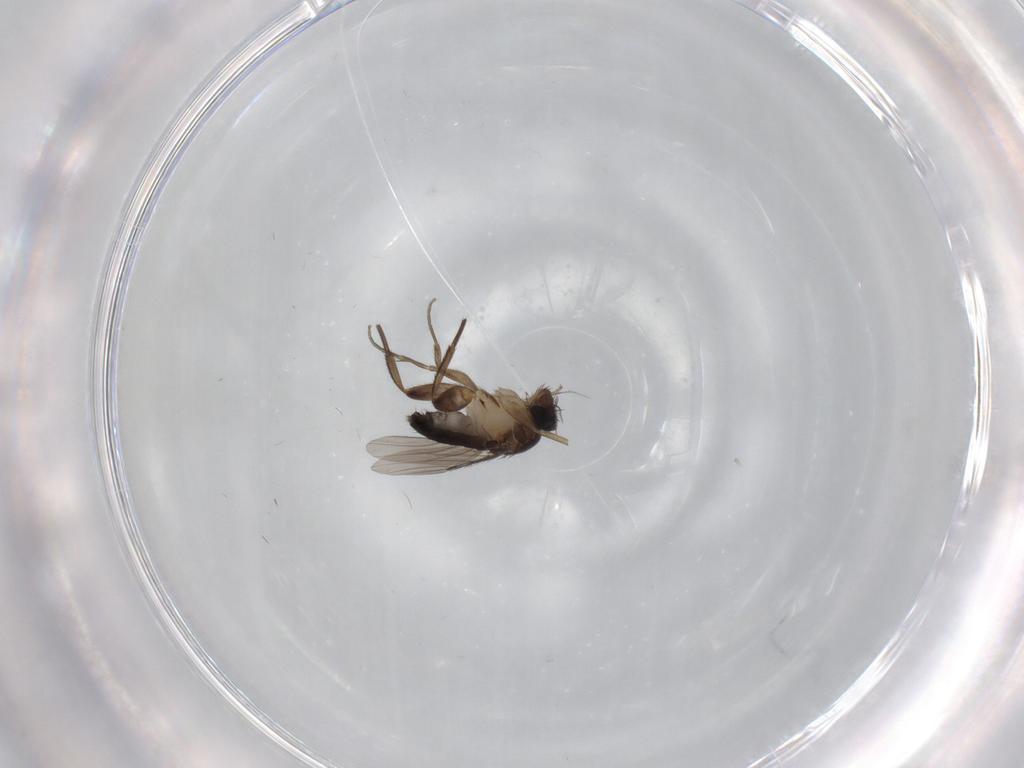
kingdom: Animalia
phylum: Arthropoda
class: Insecta
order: Diptera
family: Phoridae
